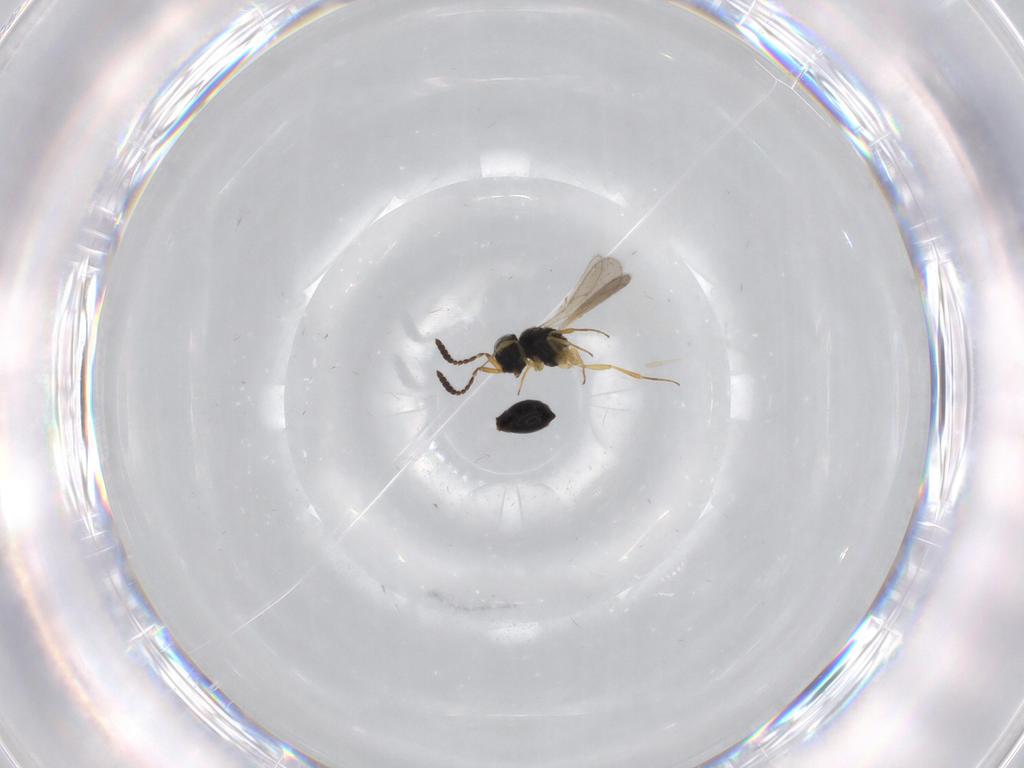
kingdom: Animalia
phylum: Arthropoda
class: Insecta
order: Hymenoptera
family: Scelionidae
